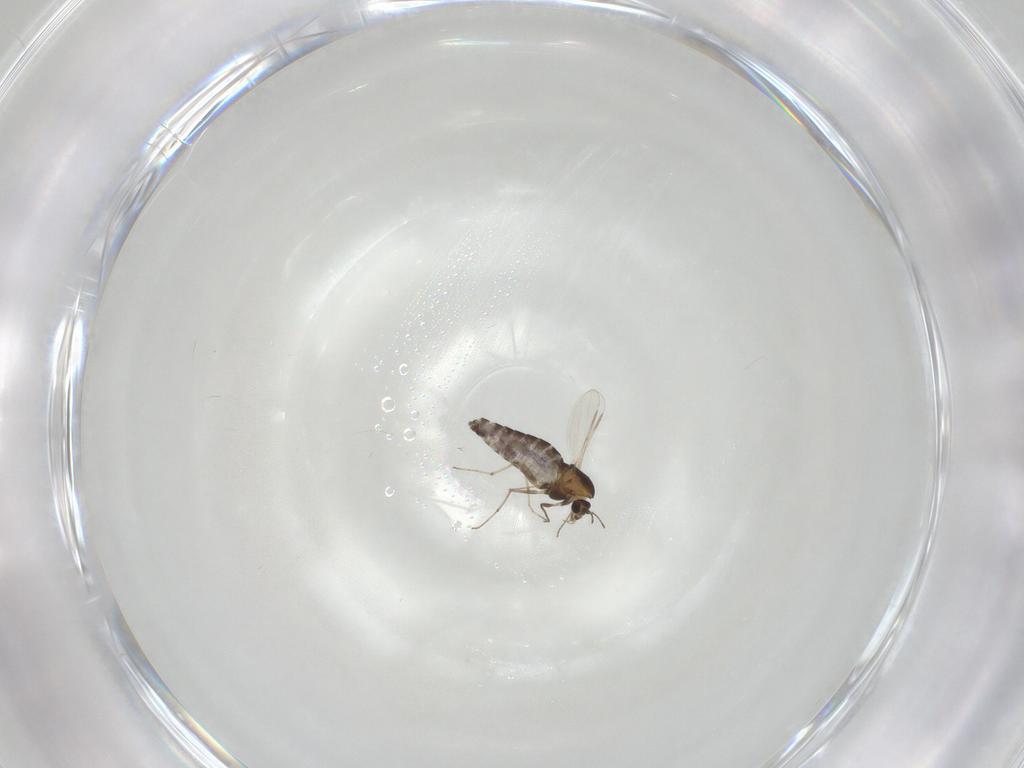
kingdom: Animalia
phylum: Arthropoda
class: Insecta
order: Diptera
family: Chironomidae
